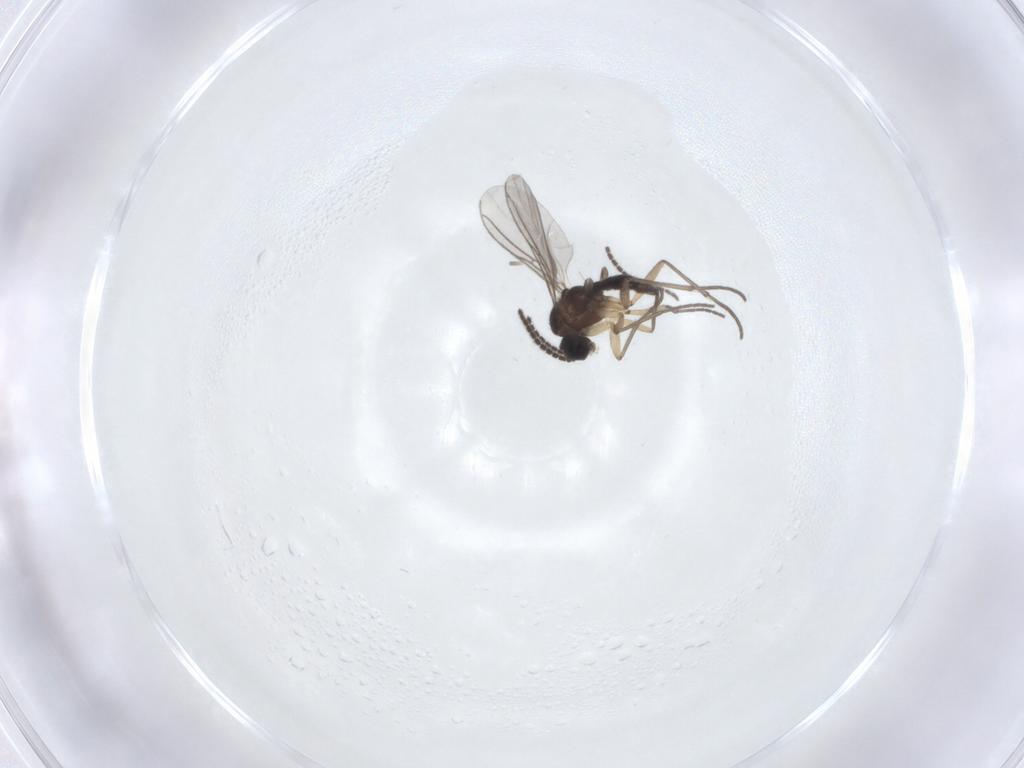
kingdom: Animalia
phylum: Arthropoda
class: Insecta
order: Diptera
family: Sciaridae
